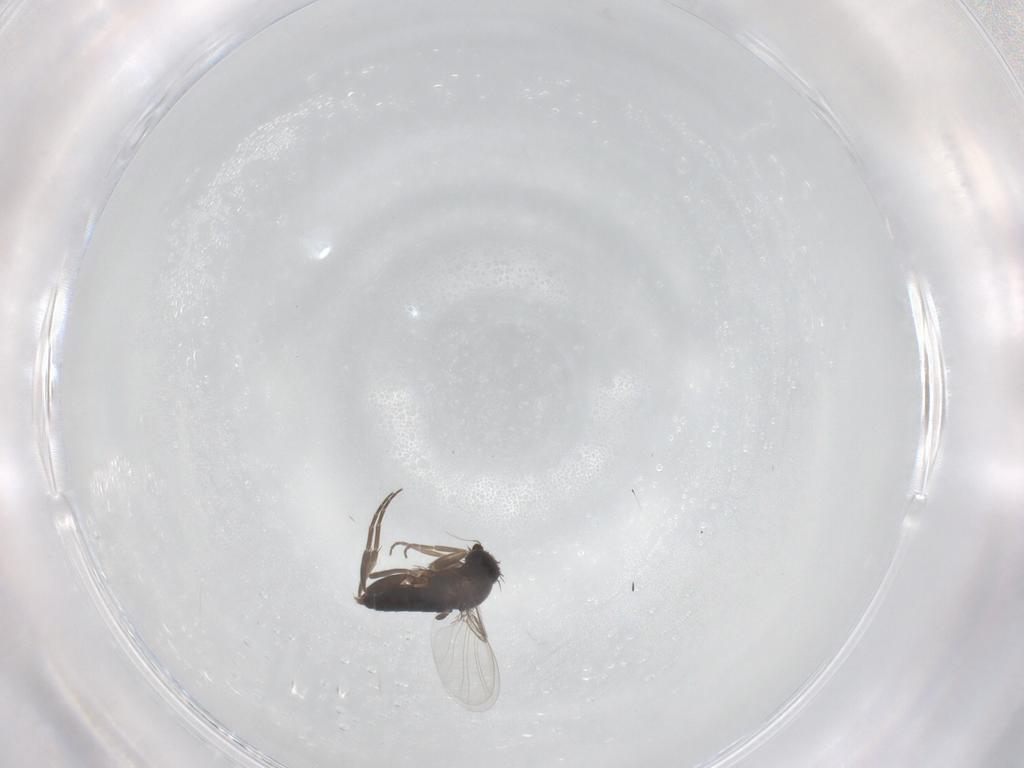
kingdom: Animalia
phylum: Arthropoda
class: Insecta
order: Diptera
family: Phoridae
